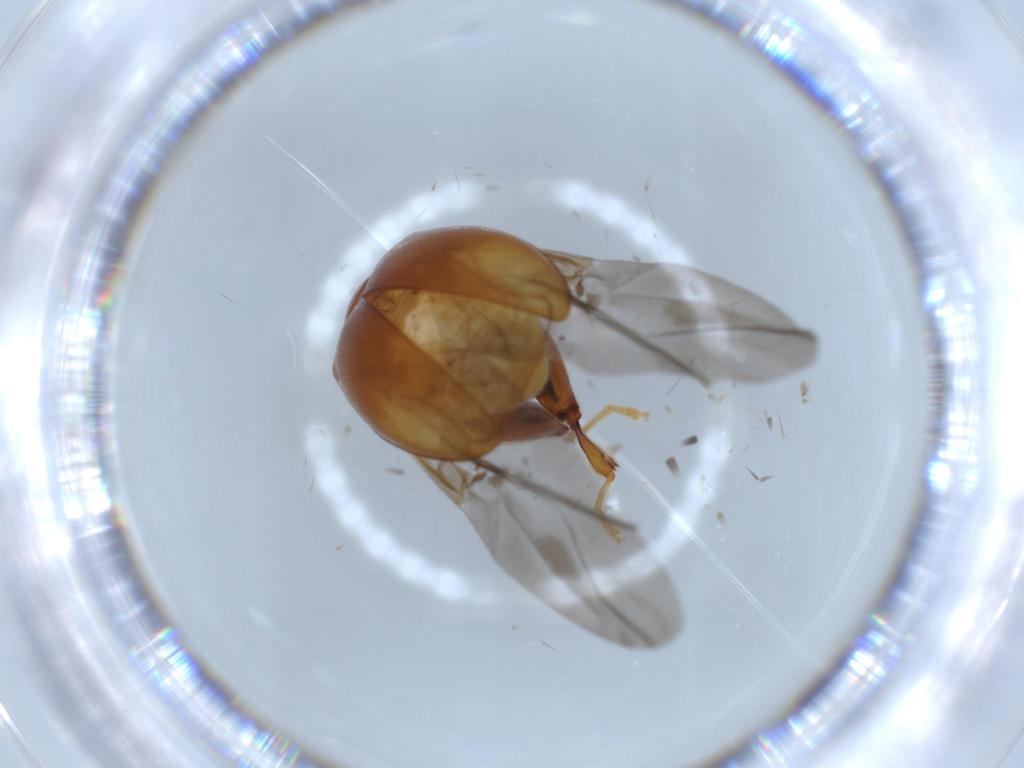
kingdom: Animalia
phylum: Arthropoda
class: Insecta
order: Coleoptera
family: Chrysomelidae
